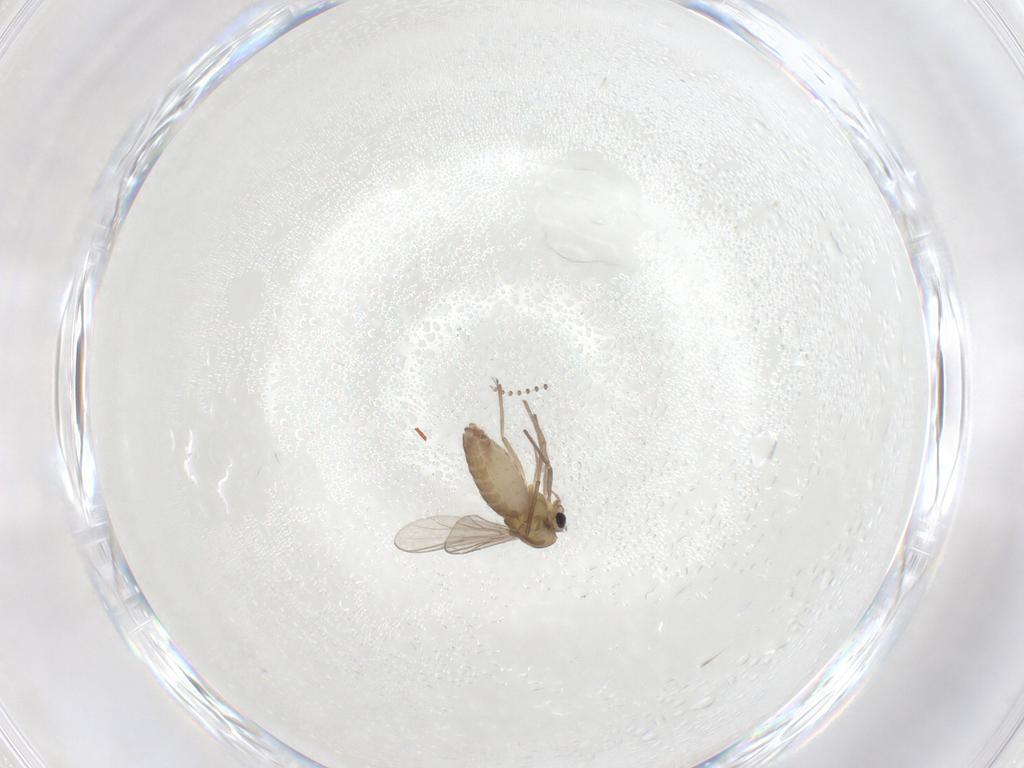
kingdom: Animalia
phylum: Arthropoda
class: Insecta
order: Diptera
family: Chironomidae
